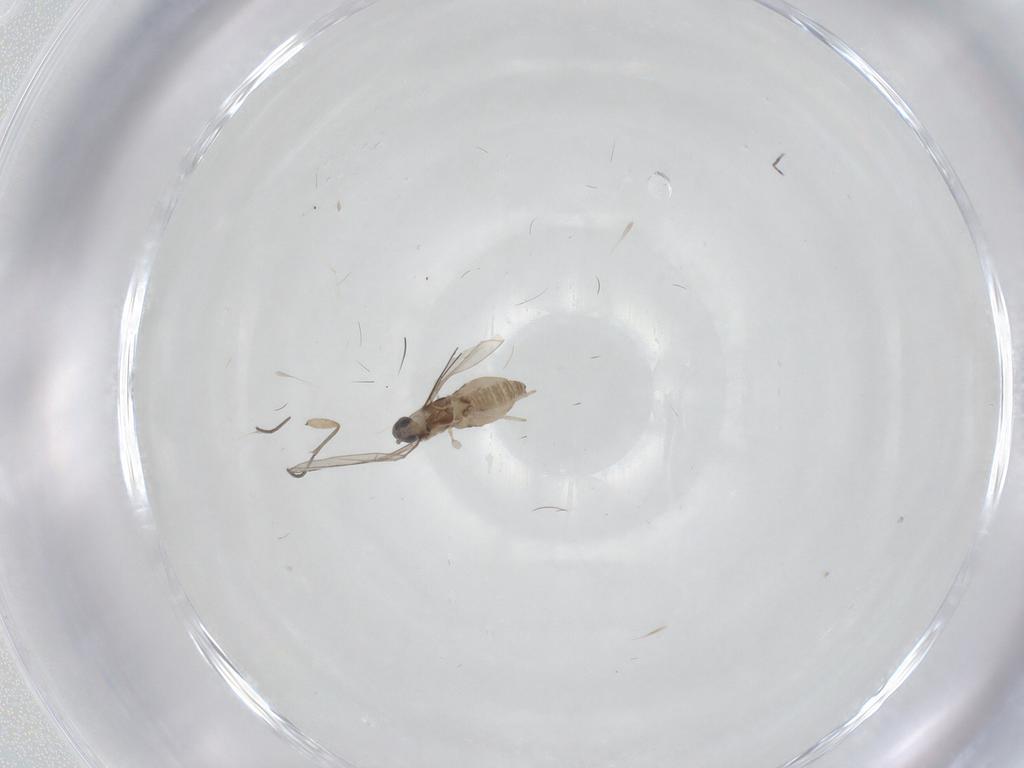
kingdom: Animalia
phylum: Arthropoda
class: Insecta
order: Diptera
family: Cecidomyiidae
